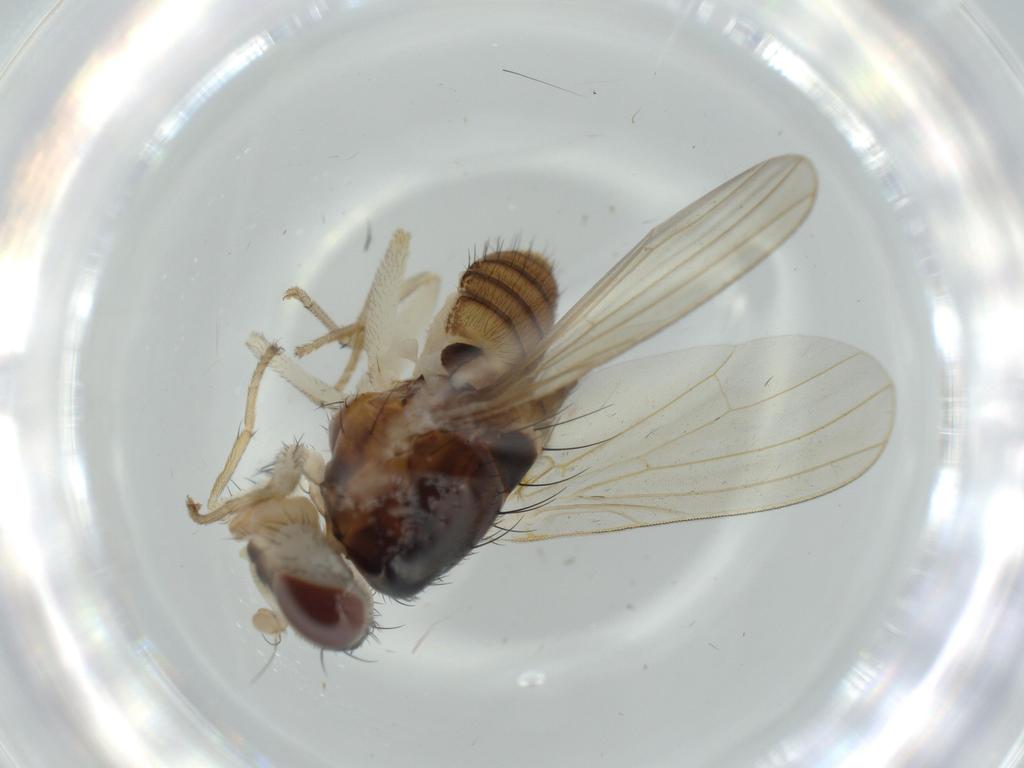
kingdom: Animalia
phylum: Arthropoda
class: Insecta
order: Diptera
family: Lauxaniidae
